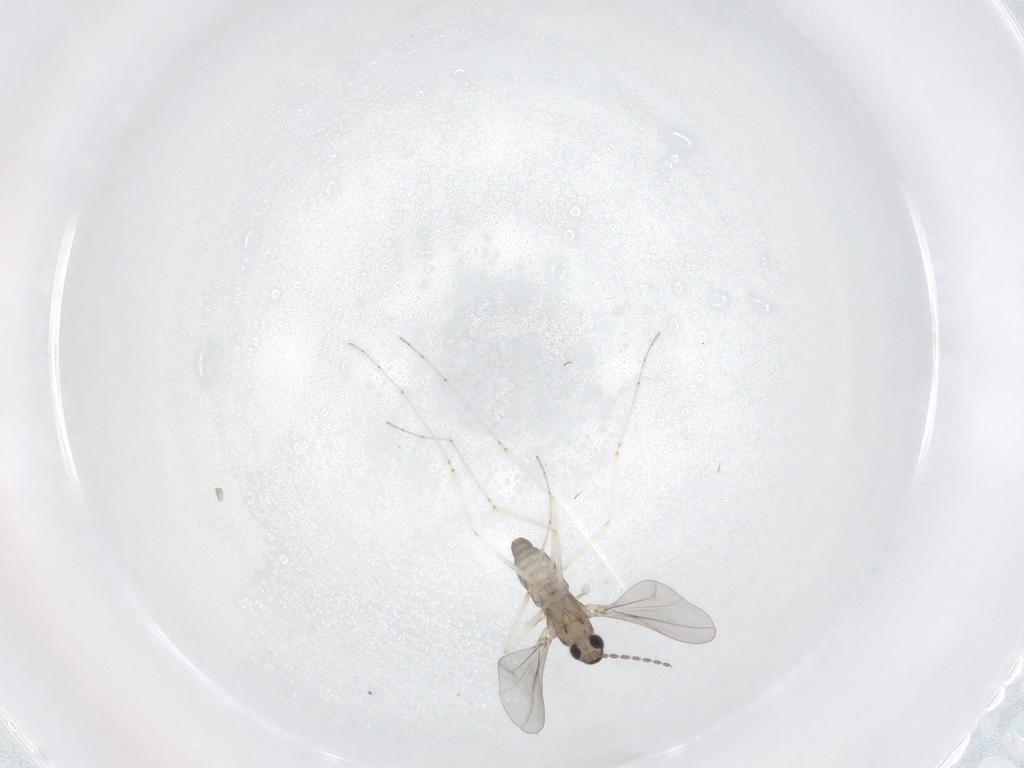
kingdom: Animalia
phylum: Arthropoda
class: Insecta
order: Diptera
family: Cecidomyiidae
